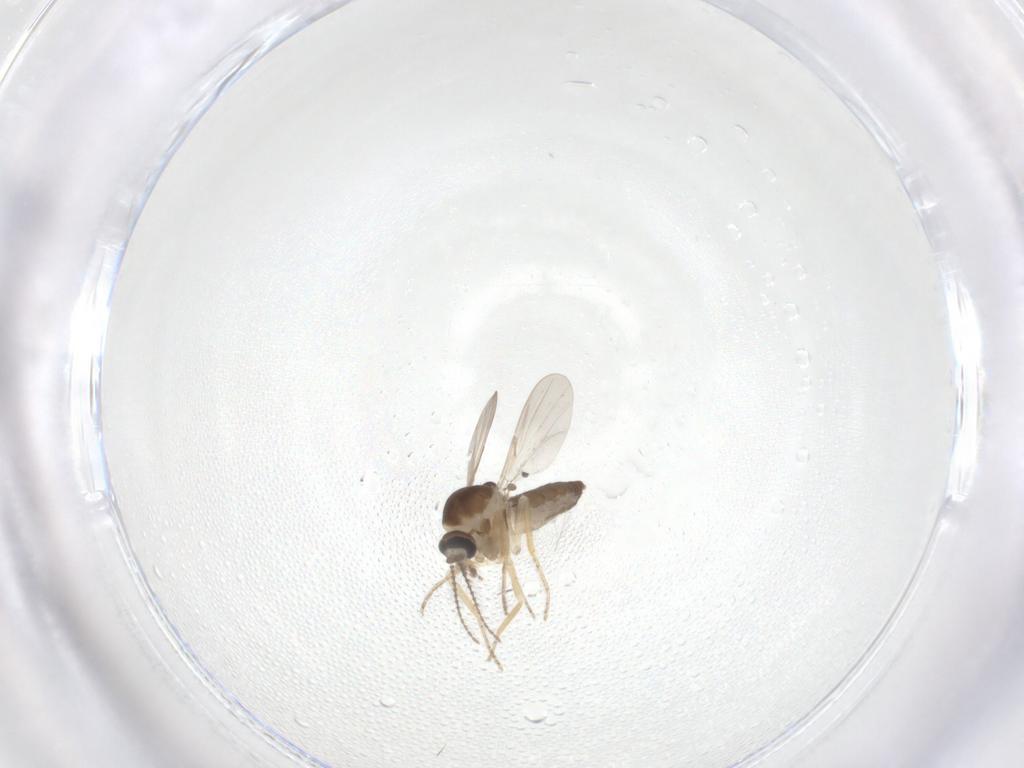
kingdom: Animalia
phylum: Arthropoda
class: Insecta
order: Diptera
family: Ceratopogonidae
